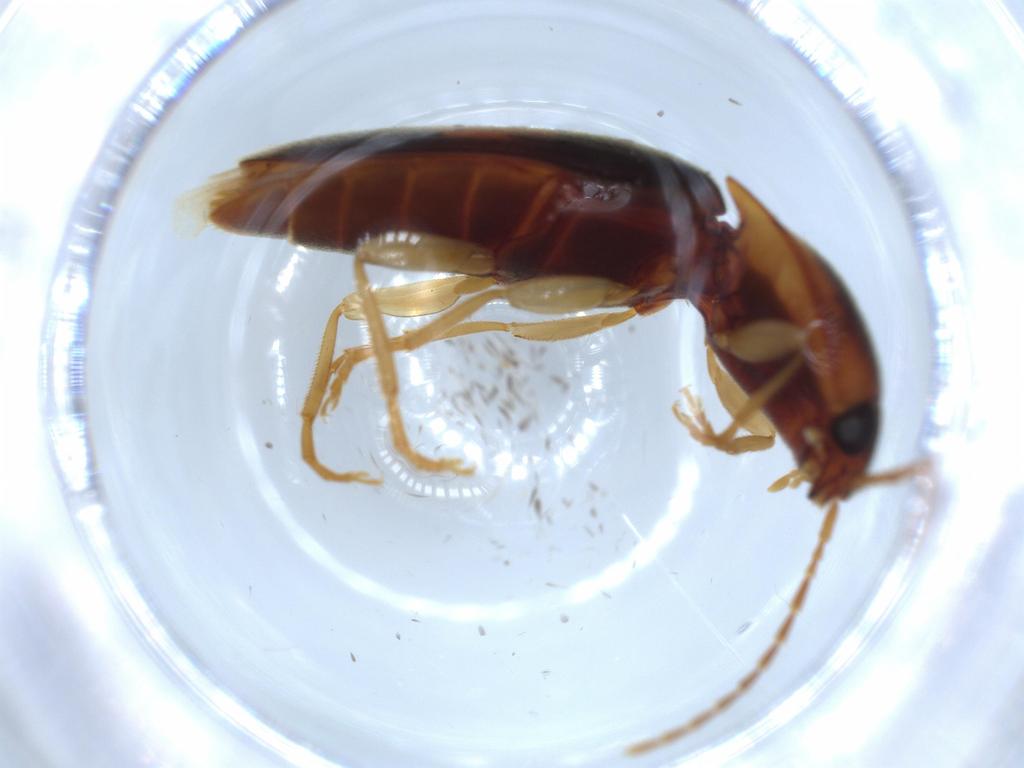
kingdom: Animalia
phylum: Arthropoda
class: Insecta
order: Coleoptera
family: Elateridae
